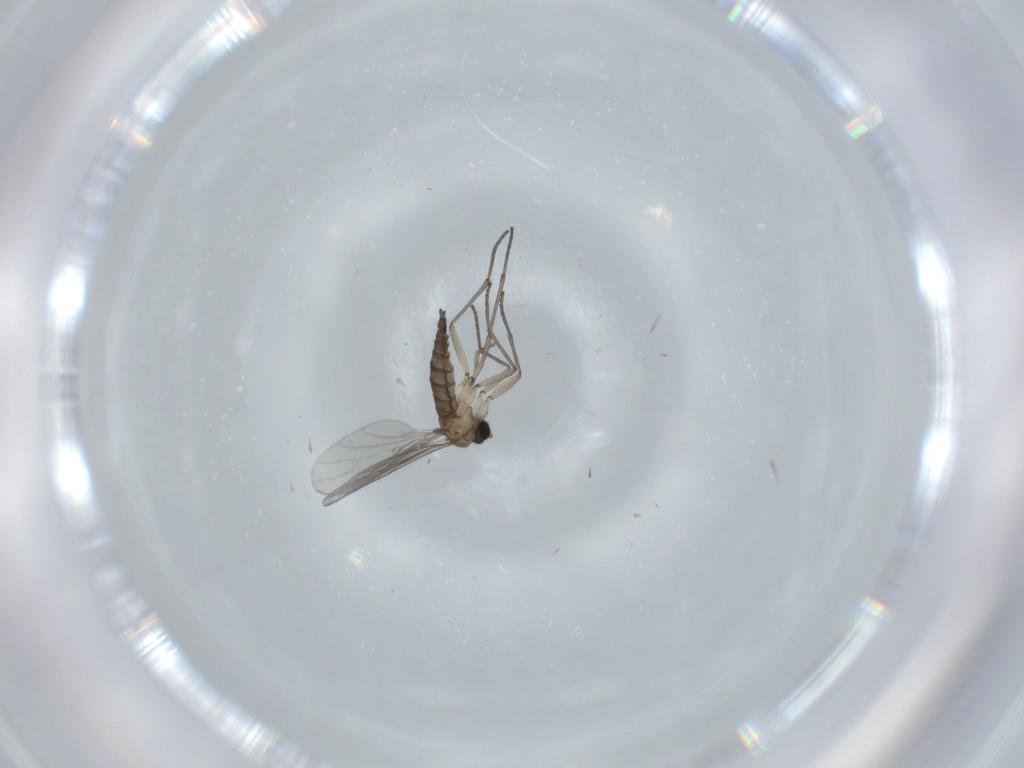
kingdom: Animalia
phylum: Arthropoda
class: Insecta
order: Diptera
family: Sciaridae
